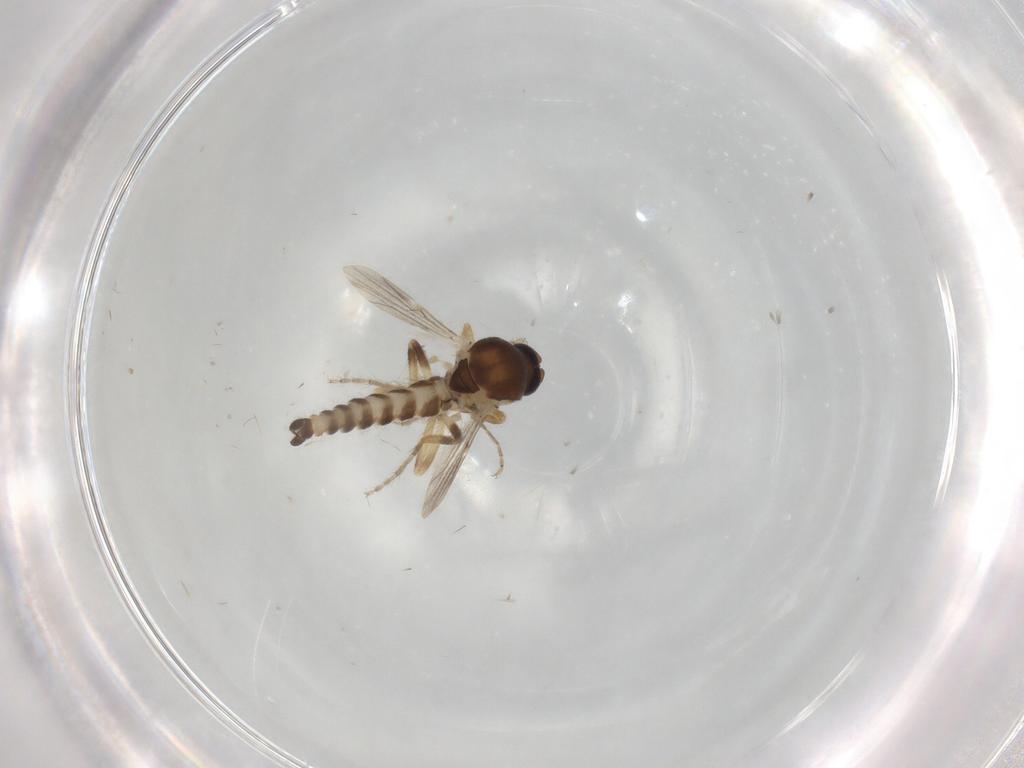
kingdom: Animalia
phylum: Arthropoda
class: Insecta
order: Diptera
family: Ceratopogonidae
